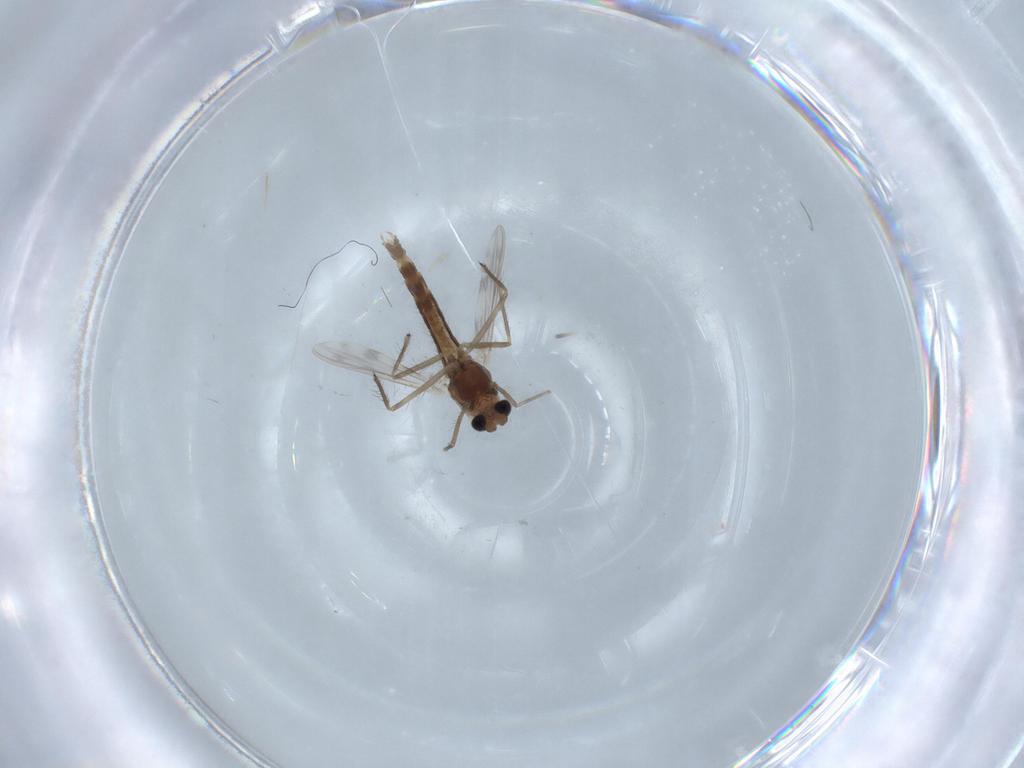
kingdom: Animalia
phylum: Arthropoda
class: Insecta
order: Diptera
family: Chironomidae
